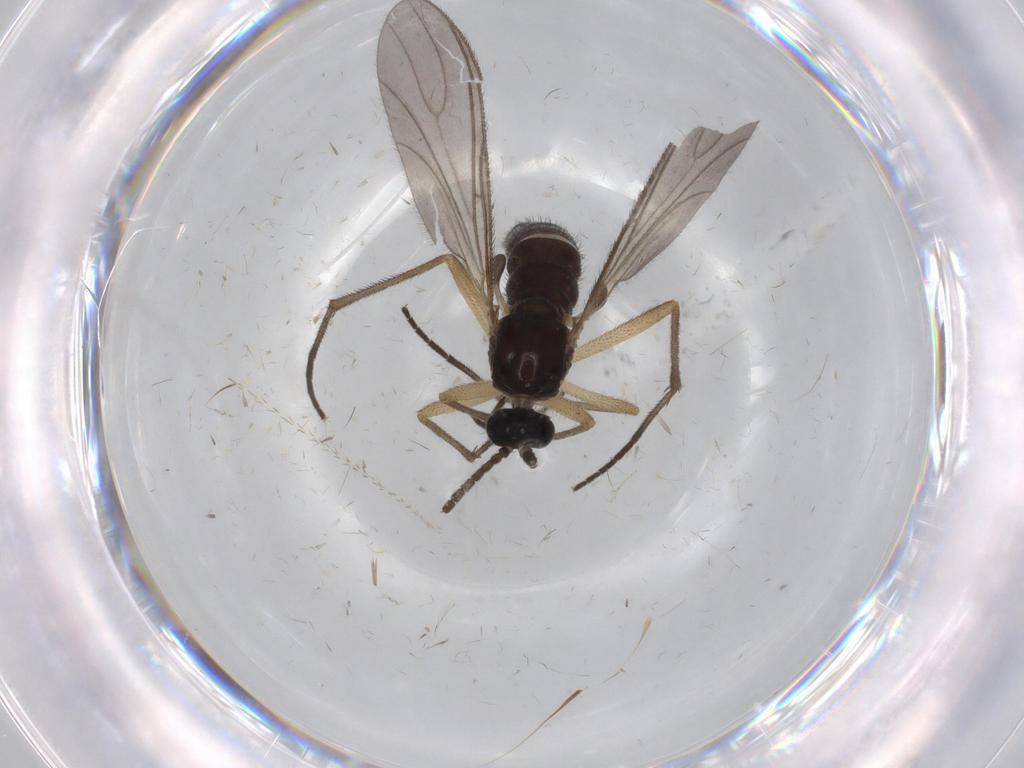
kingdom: Animalia
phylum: Arthropoda
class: Insecta
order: Diptera
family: Sciaridae
